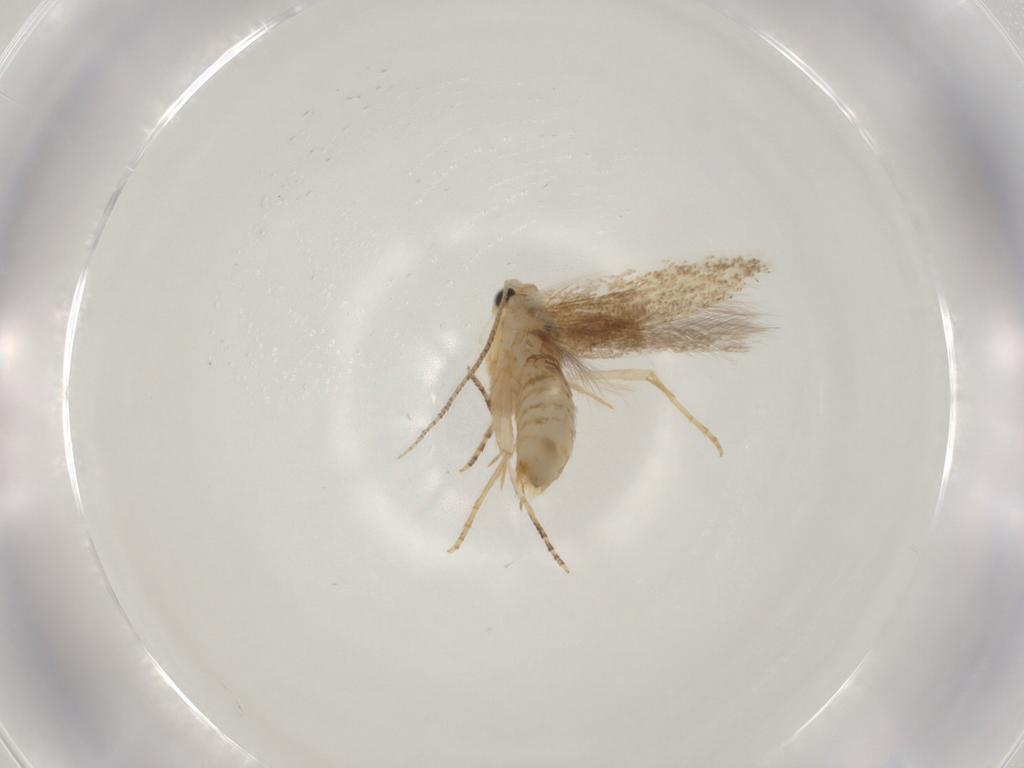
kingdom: Animalia
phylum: Arthropoda
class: Insecta
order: Lepidoptera
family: Bucculatricidae
